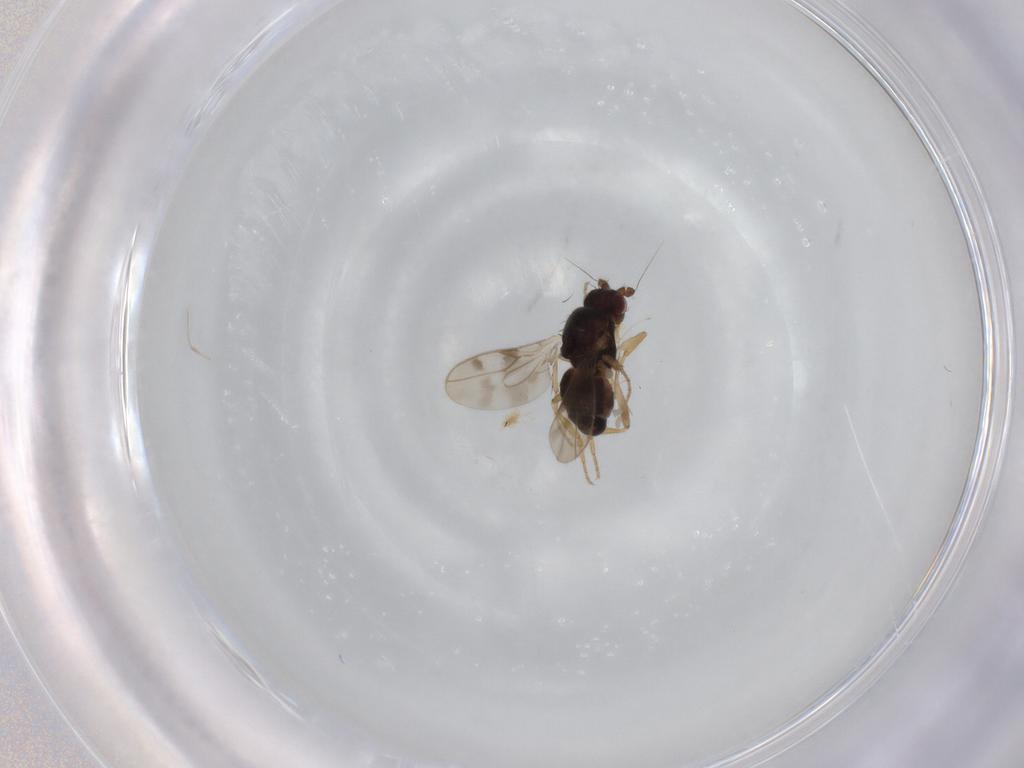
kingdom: Animalia
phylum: Arthropoda
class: Insecta
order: Diptera
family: Sphaeroceridae
